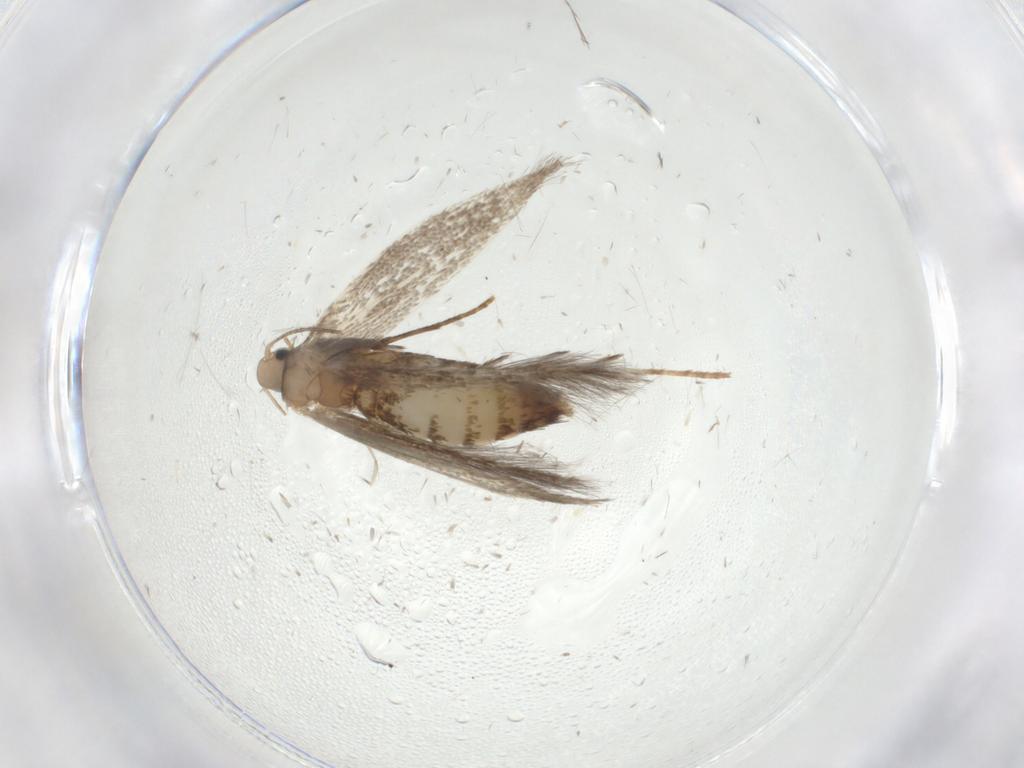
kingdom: Animalia
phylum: Arthropoda
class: Insecta
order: Lepidoptera
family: Tischeriidae
